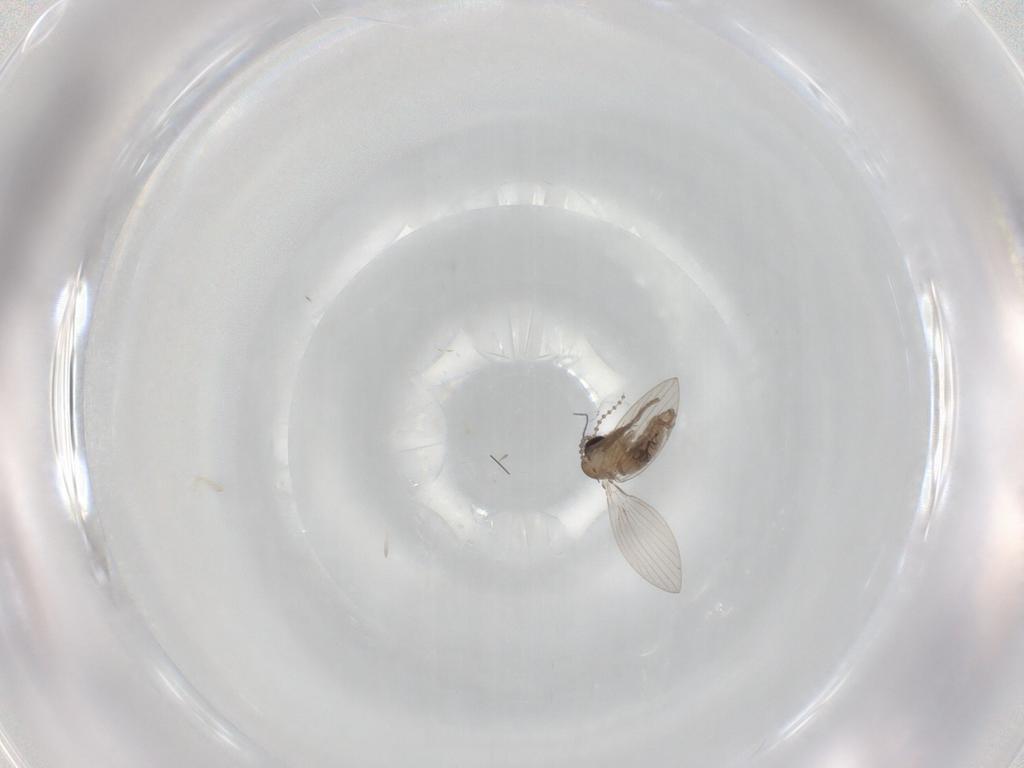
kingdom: Animalia
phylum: Arthropoda
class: Insecta
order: Diptera
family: Psychodidae
